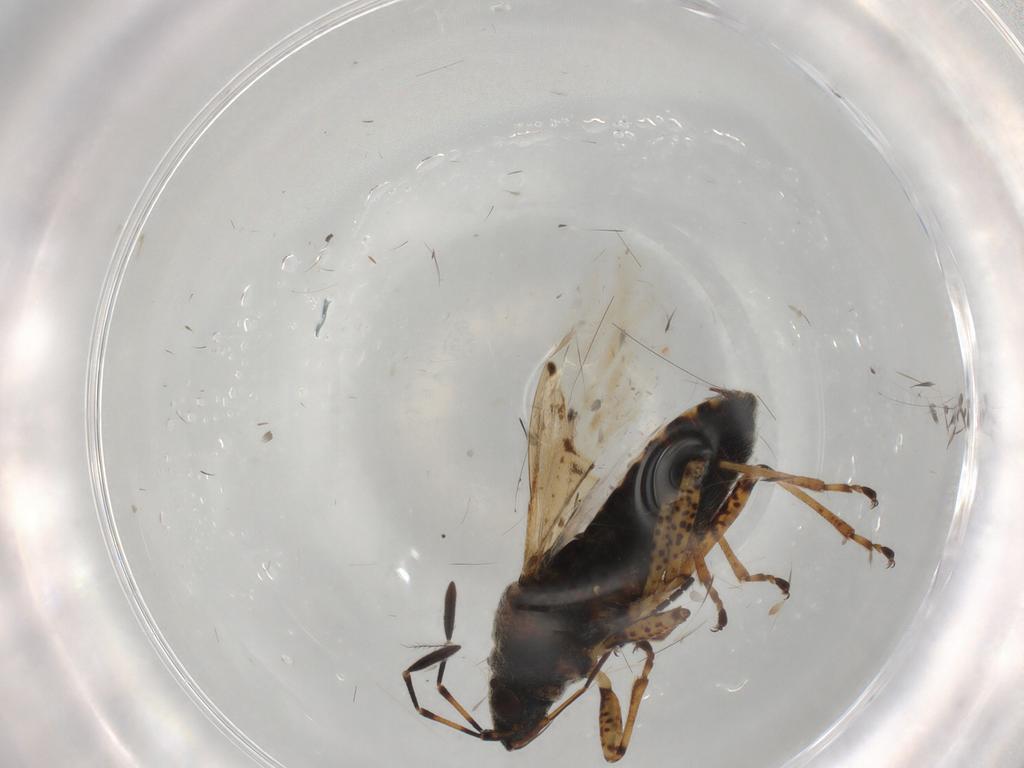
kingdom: Animalia
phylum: Arthropoda
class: Insecta
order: Hemiptera
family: Lygaeidae
